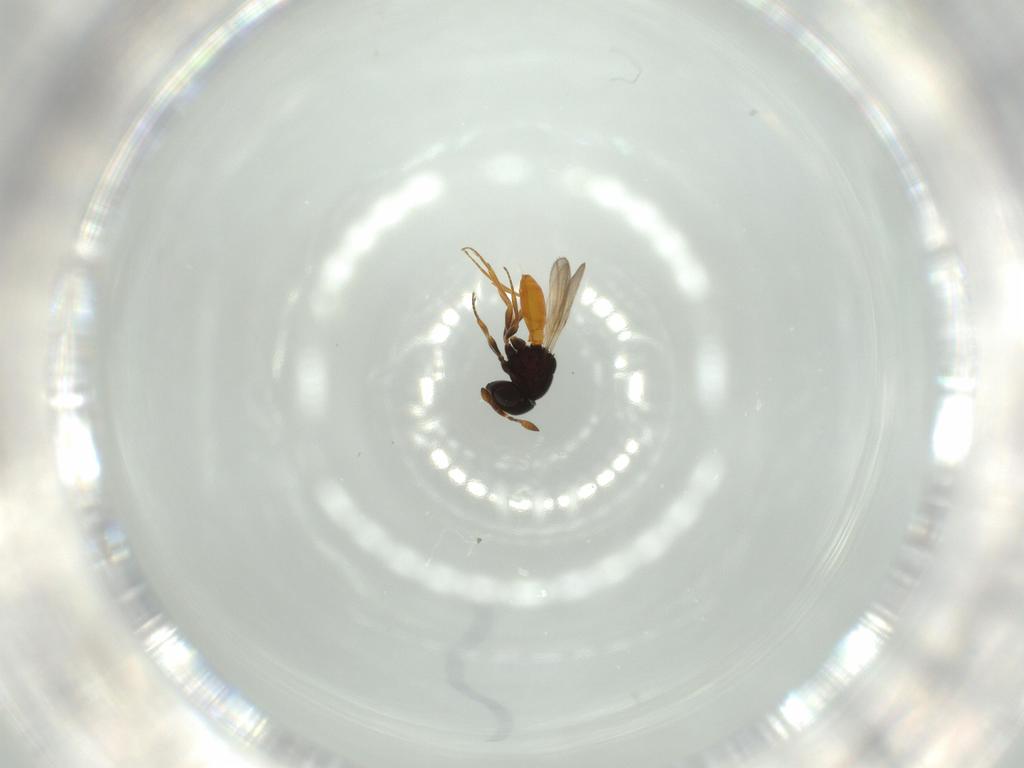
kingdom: Animalia
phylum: Arthropoda
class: Insecta
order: Hymenoptera
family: Scelionidae
